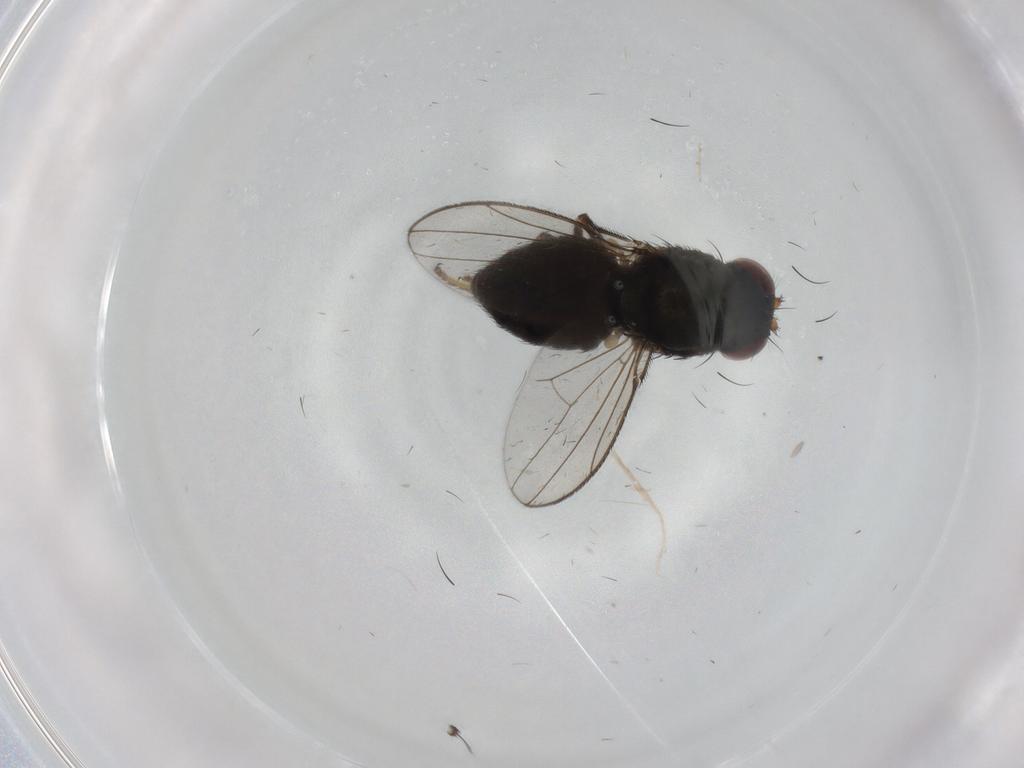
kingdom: Animalia
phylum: Arthropoda
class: Insecta
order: Diptera
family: Ephydridae
